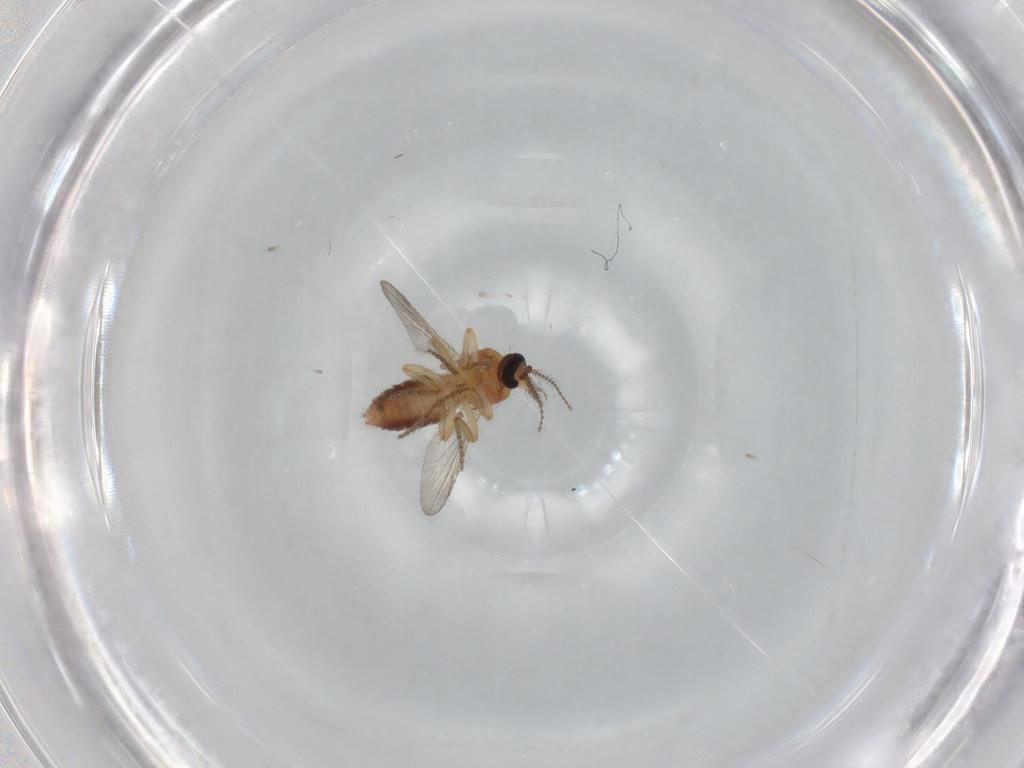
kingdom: Animalia
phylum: Arthropoda
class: Insecta
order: Diptera
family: Ceratopogonidae
